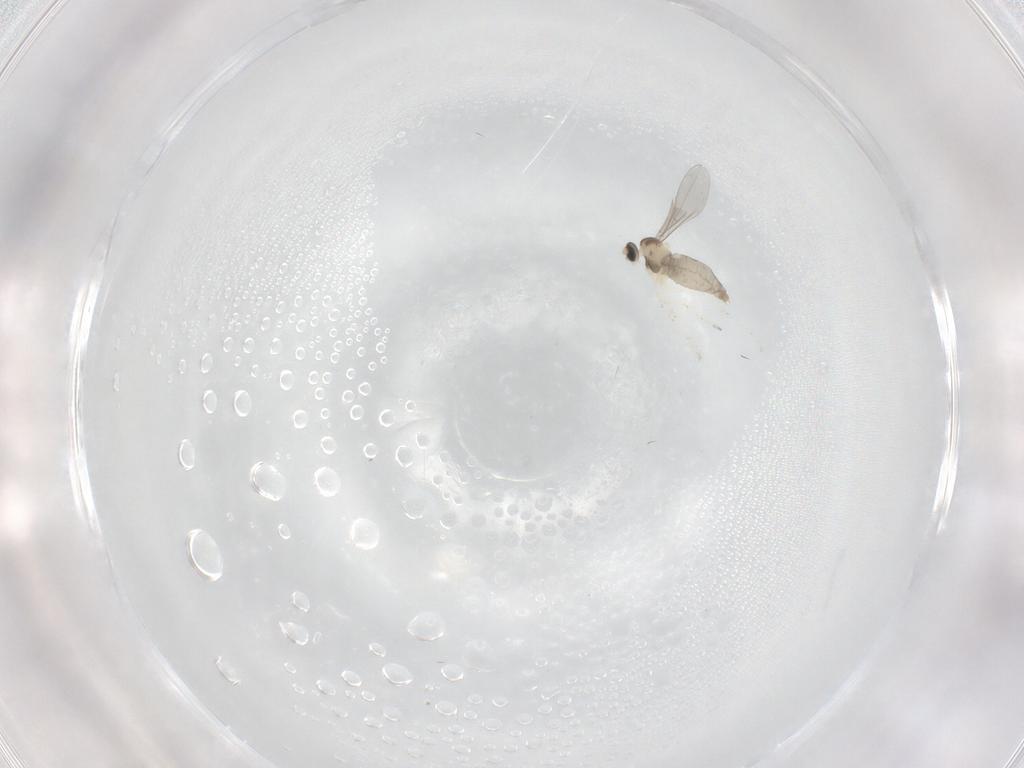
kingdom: Animalia
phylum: Arthropoda
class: Insecta
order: Diptera
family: Cecidomyiidae
